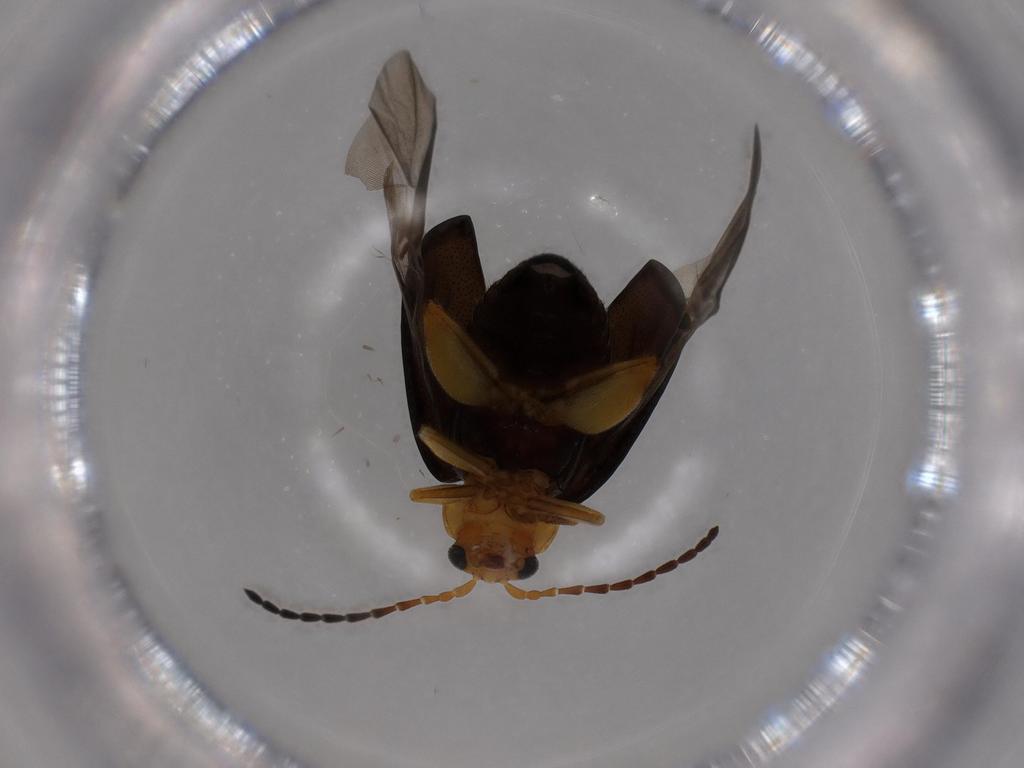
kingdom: Animalia
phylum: Arthropoda
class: Insecta
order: Coleoptera
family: Chrysomelidae
